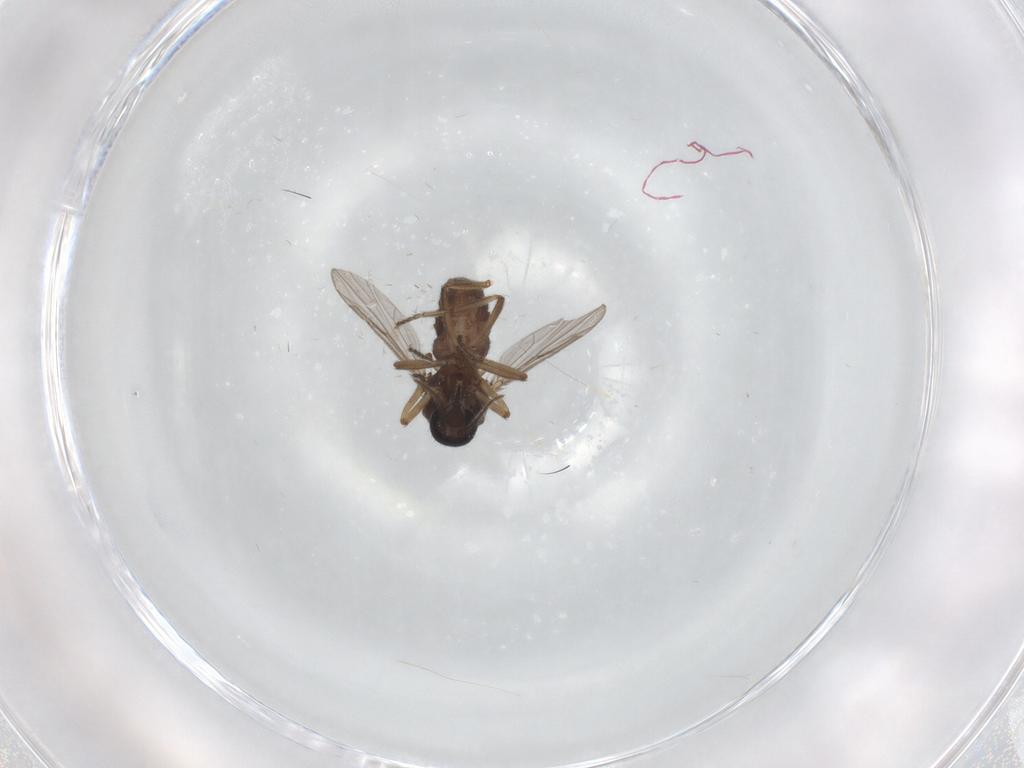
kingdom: Animalia
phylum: Arthropoda
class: Insecta
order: Diptera
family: Ceratopogonidae
